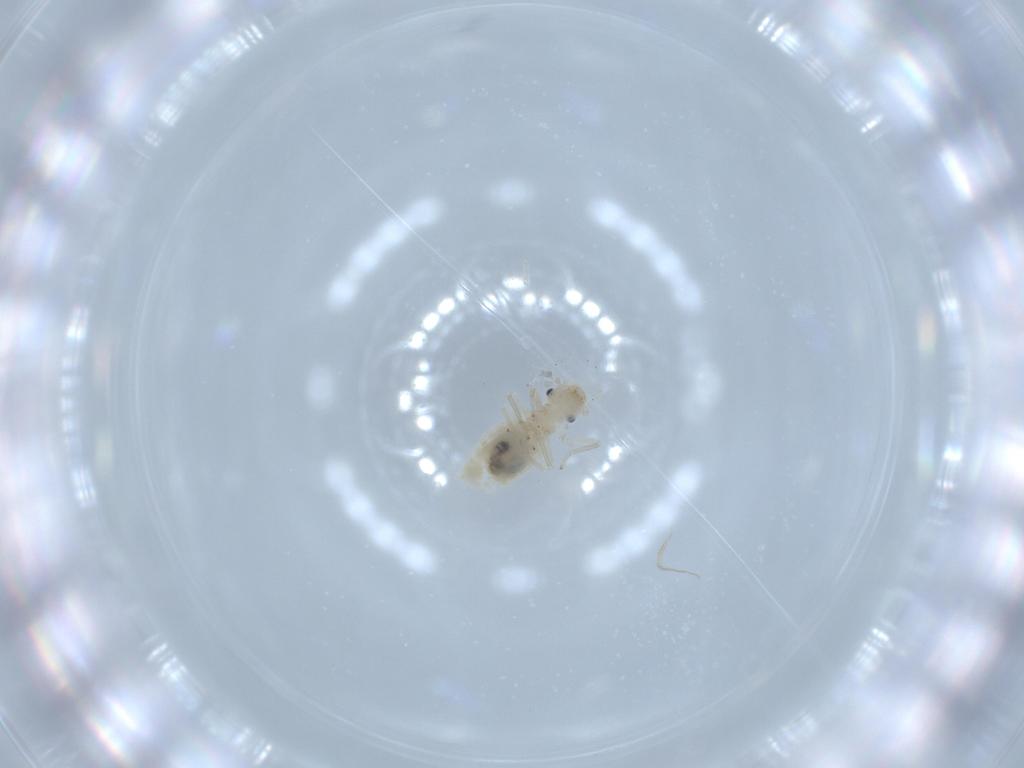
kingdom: Animalia
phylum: Arthropoda
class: Insecta
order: Psocodea
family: Caeciliusidae
